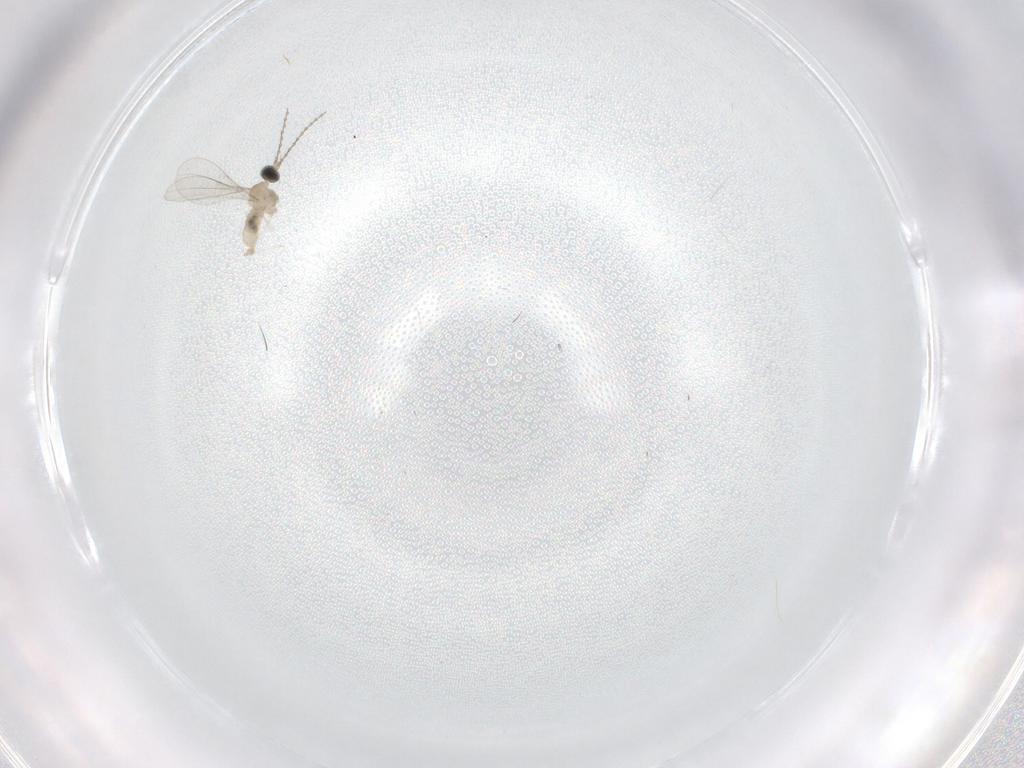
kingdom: Animalia
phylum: Arthropoda
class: Insecta
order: Diptera
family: Cecidomyiidae
